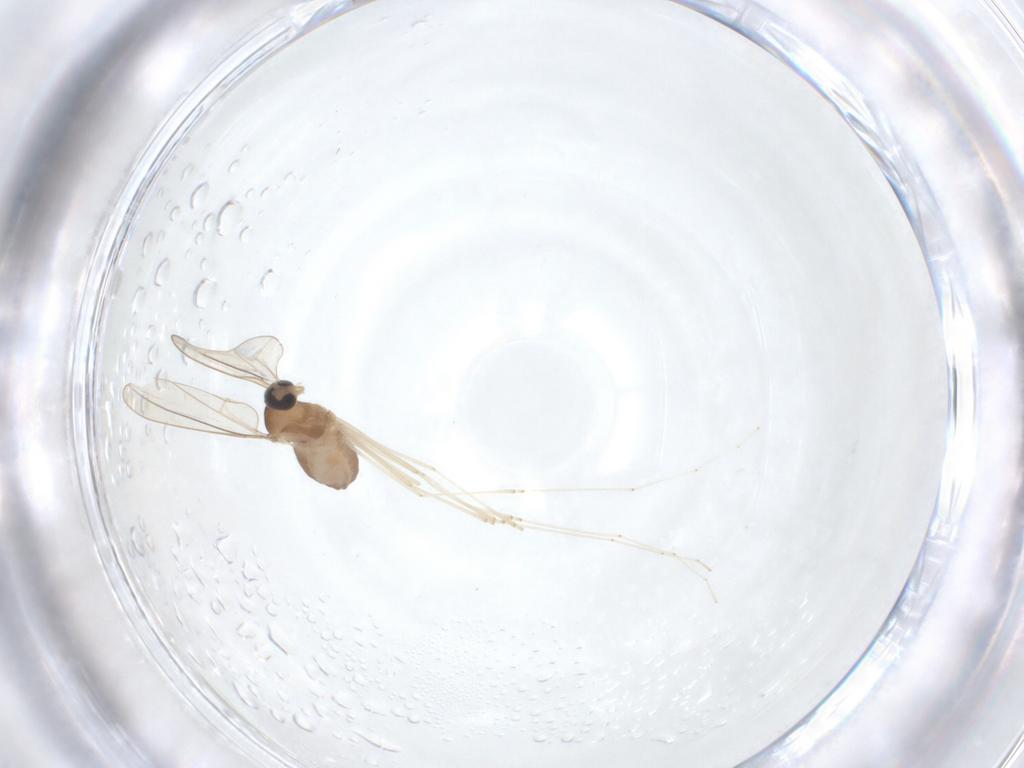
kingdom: Animalia
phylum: Arthropoda
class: Insecta
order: Diptera
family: Cecidomyiidae
